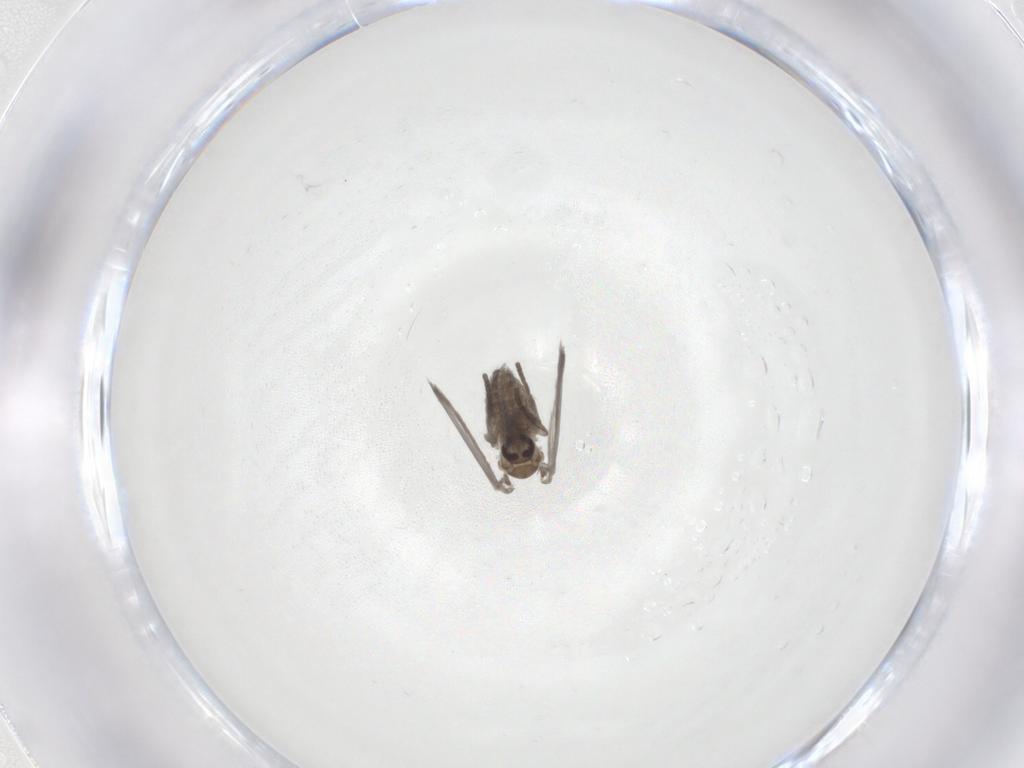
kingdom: Animalia
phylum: Arthropoda
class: Insecta
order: Diptera
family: Psychodidae
